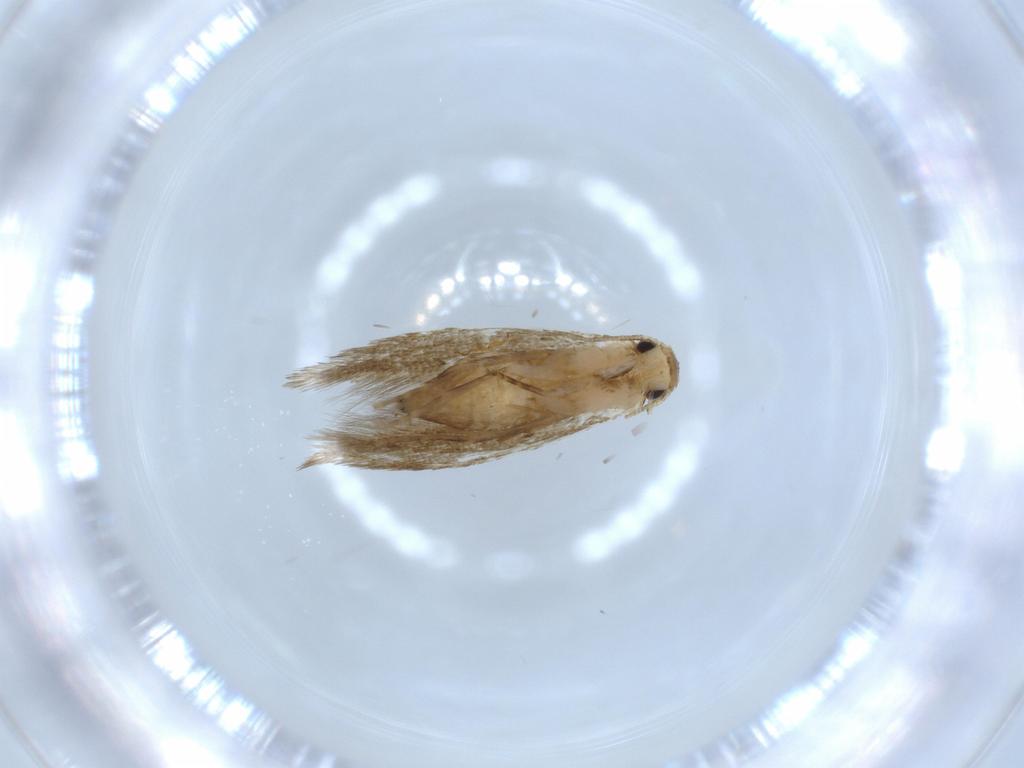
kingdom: Animalia
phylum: Arthropoda
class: Insecta
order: Lepidoptera
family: Tineidae
